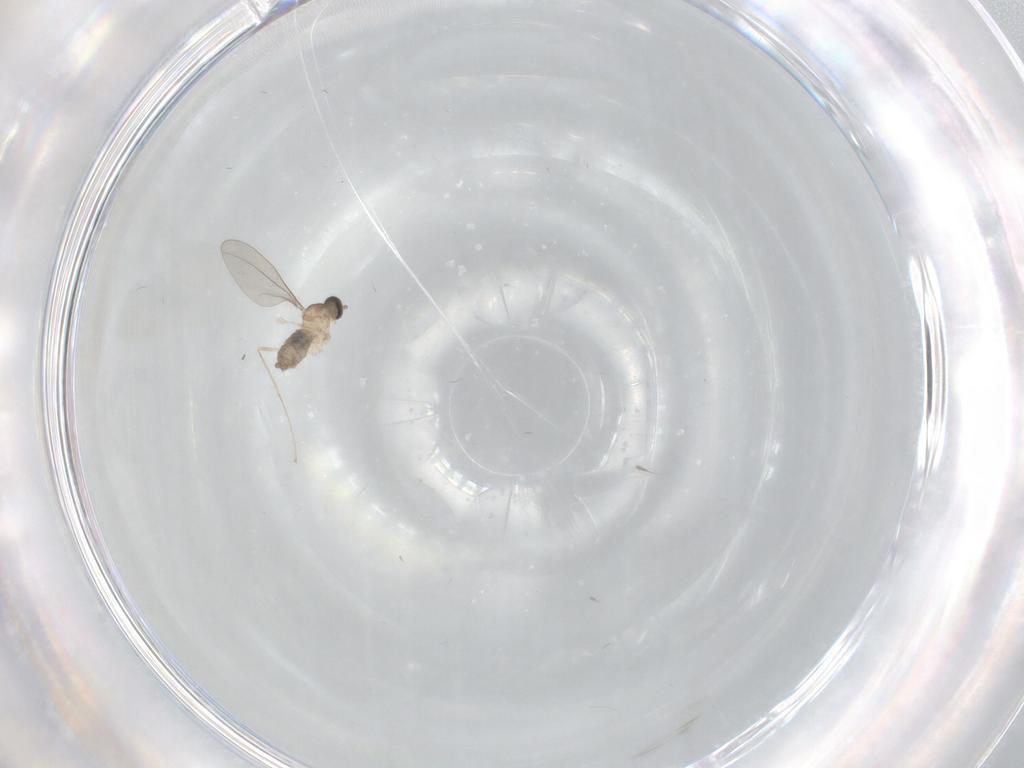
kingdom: Animalia
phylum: Arthropoda
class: Insecta
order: Diptera
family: Cecidomyiidae
